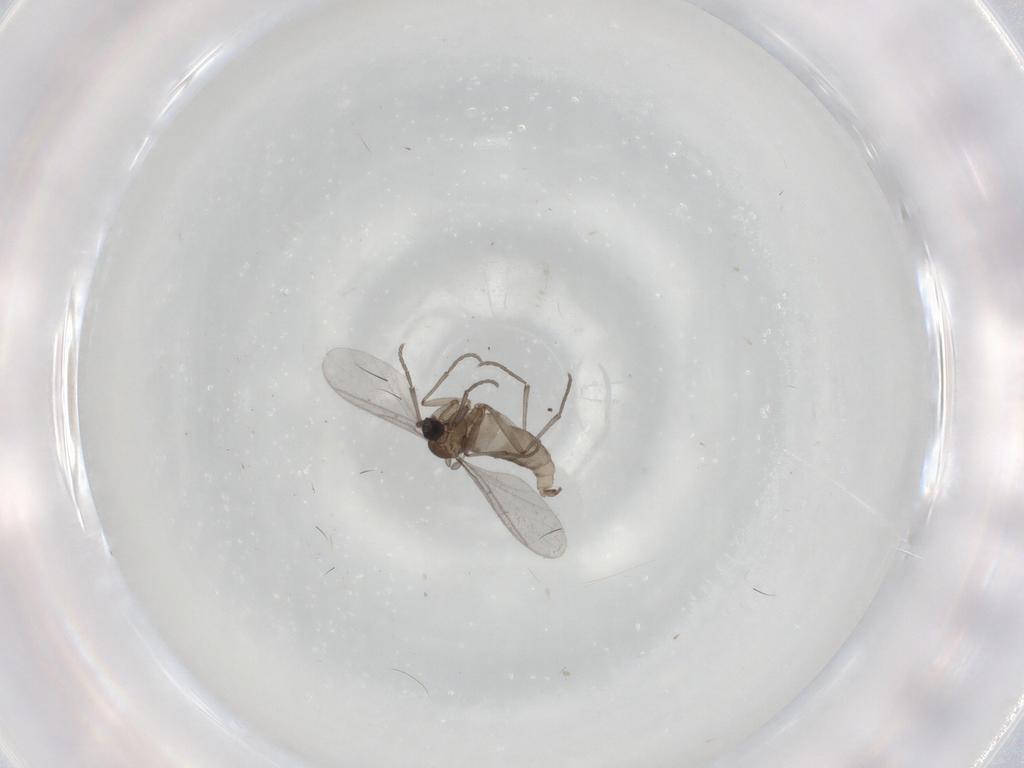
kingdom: Animalia
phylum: Arthropoda
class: Insecta
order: Diptera
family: Sciaridae
